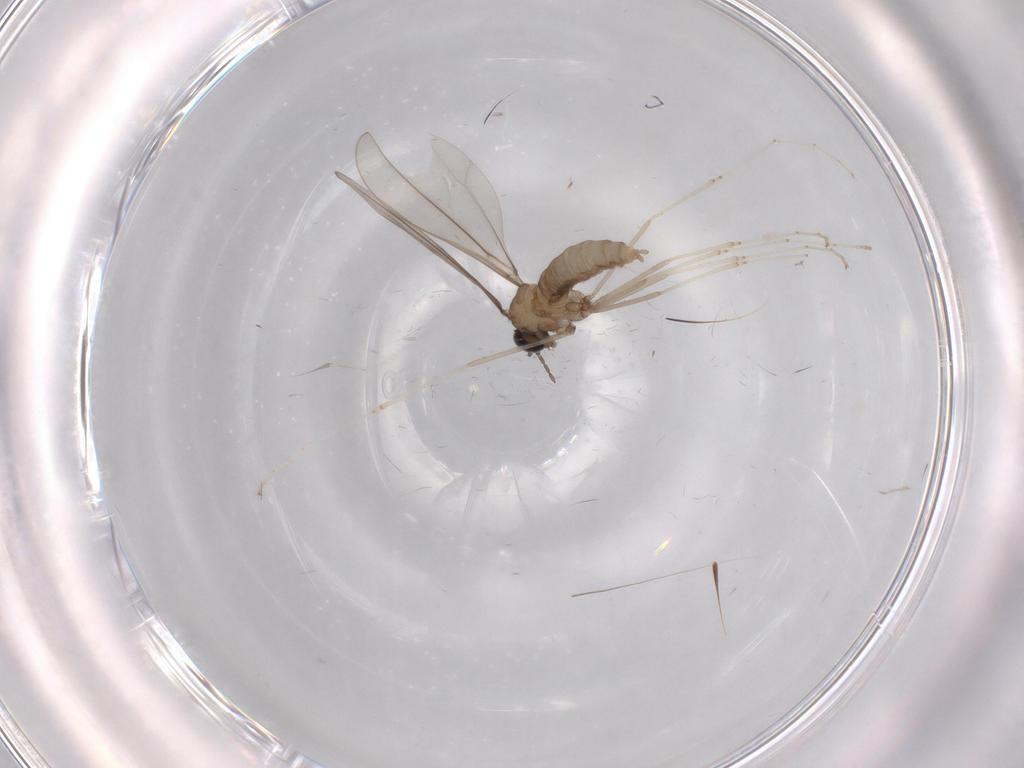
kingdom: Animalia
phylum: Arthropoda
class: Insecta
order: Diptera
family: Cecidomyiidae
